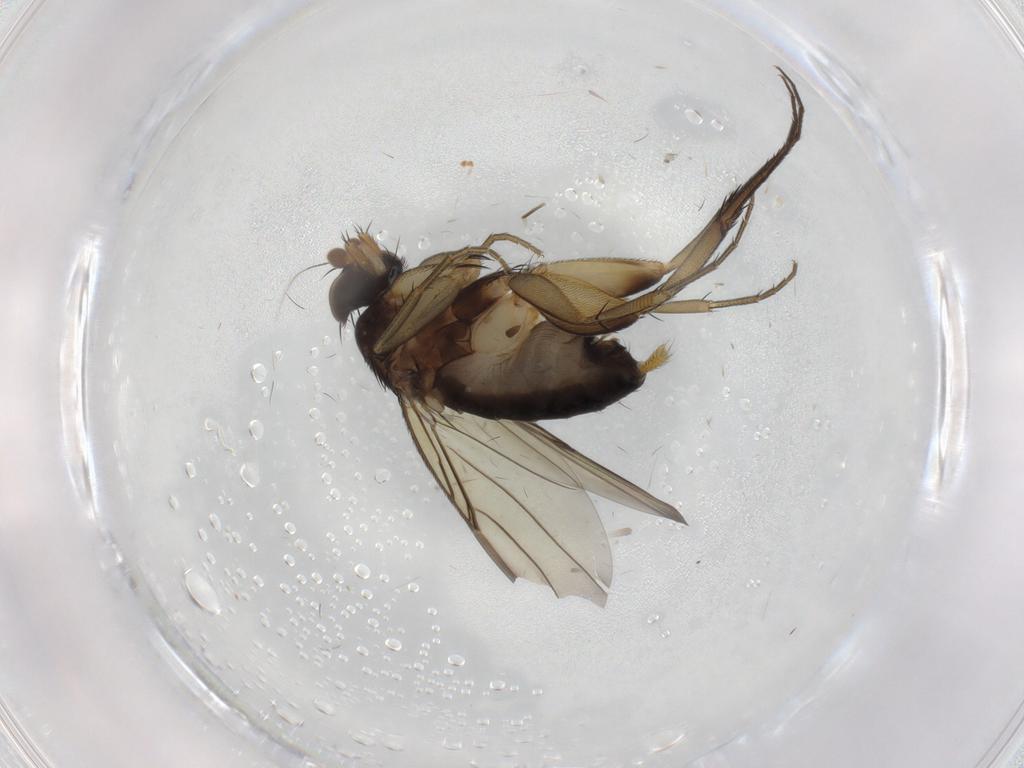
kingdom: Animalia
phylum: Arthropoda
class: Insecta
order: Diptera
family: Phoridae
